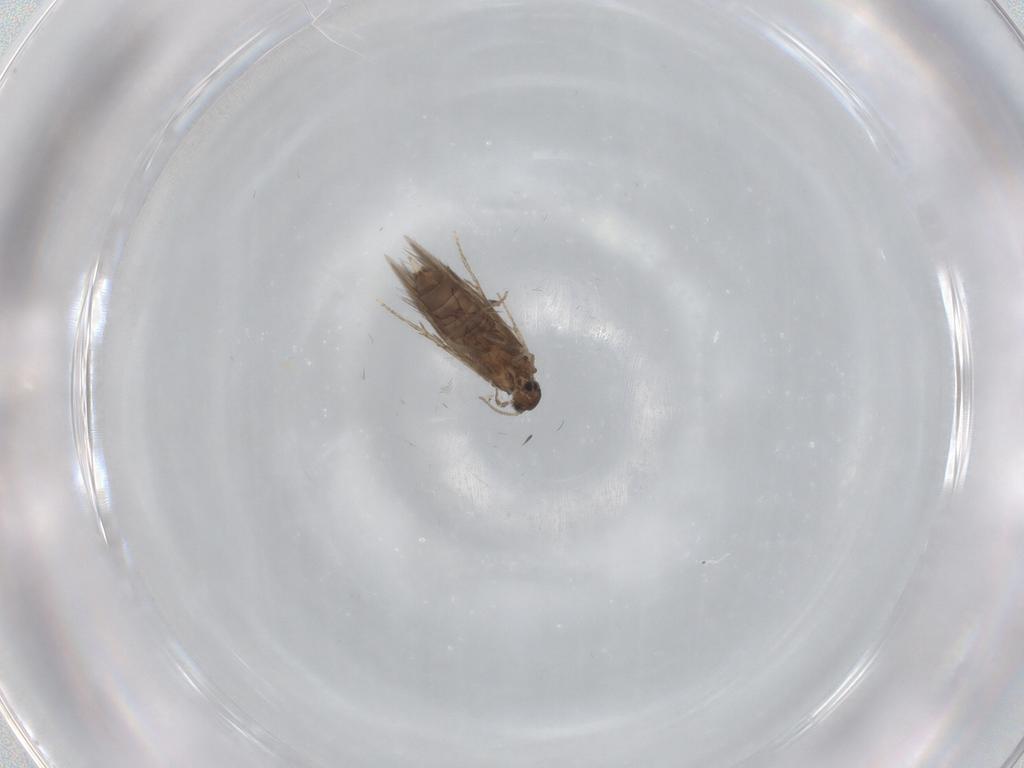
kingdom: Animalia
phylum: Arthropoda
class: Insecta
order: Trichoptera
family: Hydroptilidae
